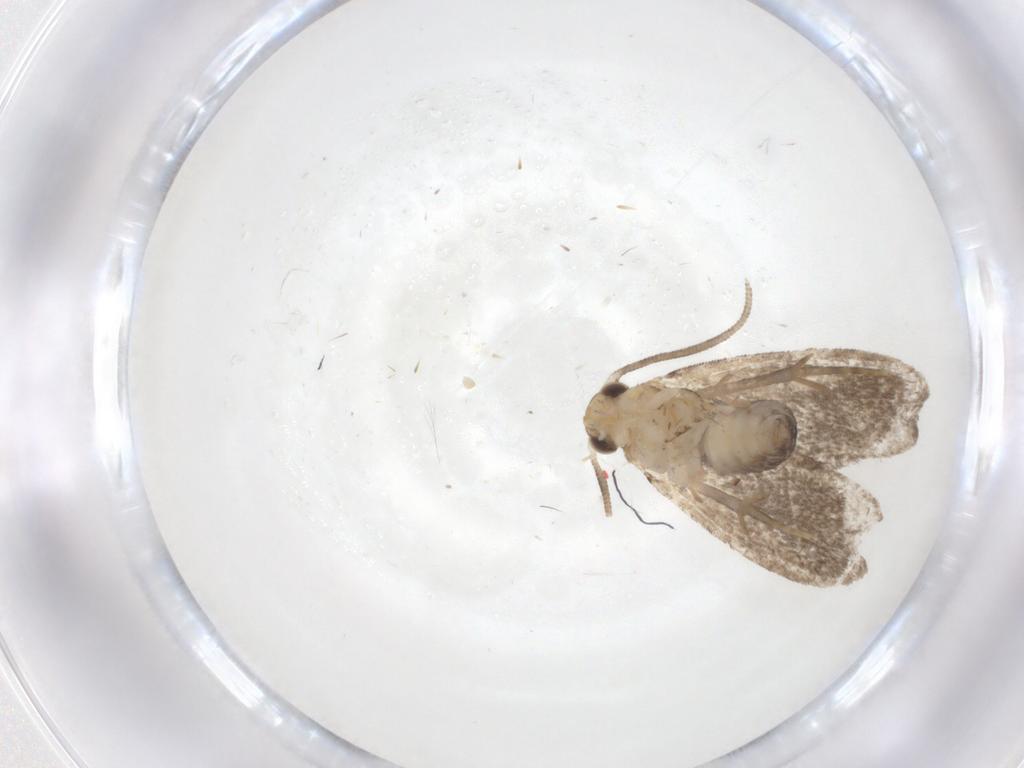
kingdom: Animalia
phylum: Arthropoda
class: Insecta
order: Lepidoptera
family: Dryadaulidae
